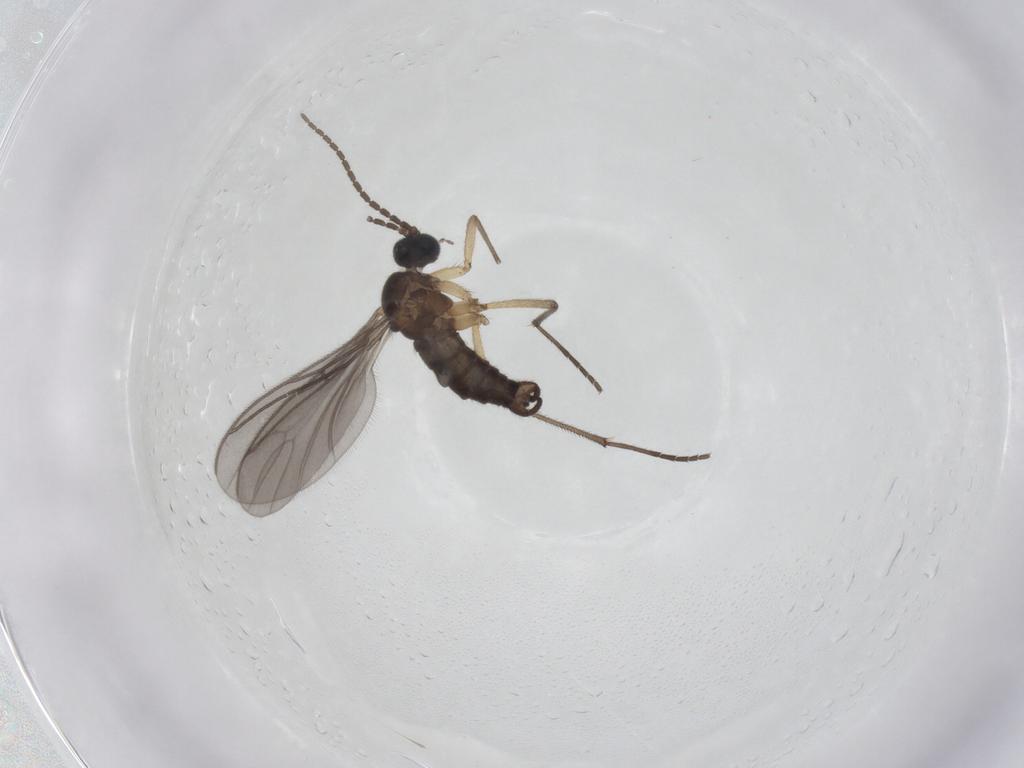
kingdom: Animalia
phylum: Arthropoda
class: Insecta
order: Diptera
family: Sciaridae
